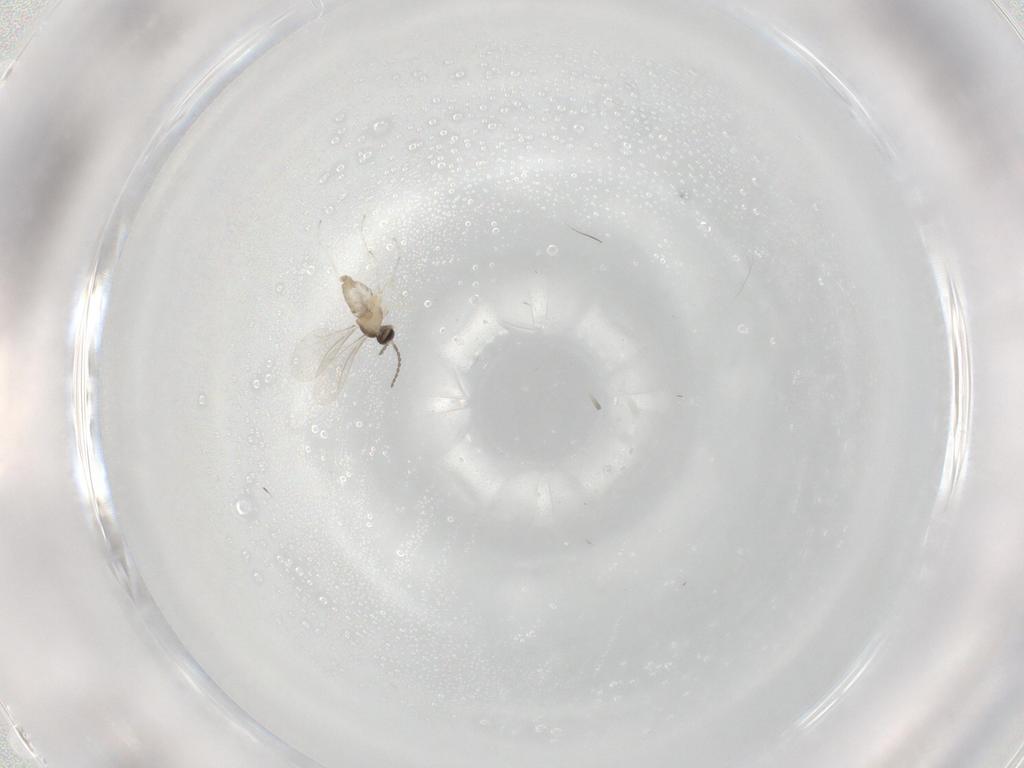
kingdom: Animalia
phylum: Arthropoda
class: Insecta
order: Diptera
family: Cecidomyiidae
